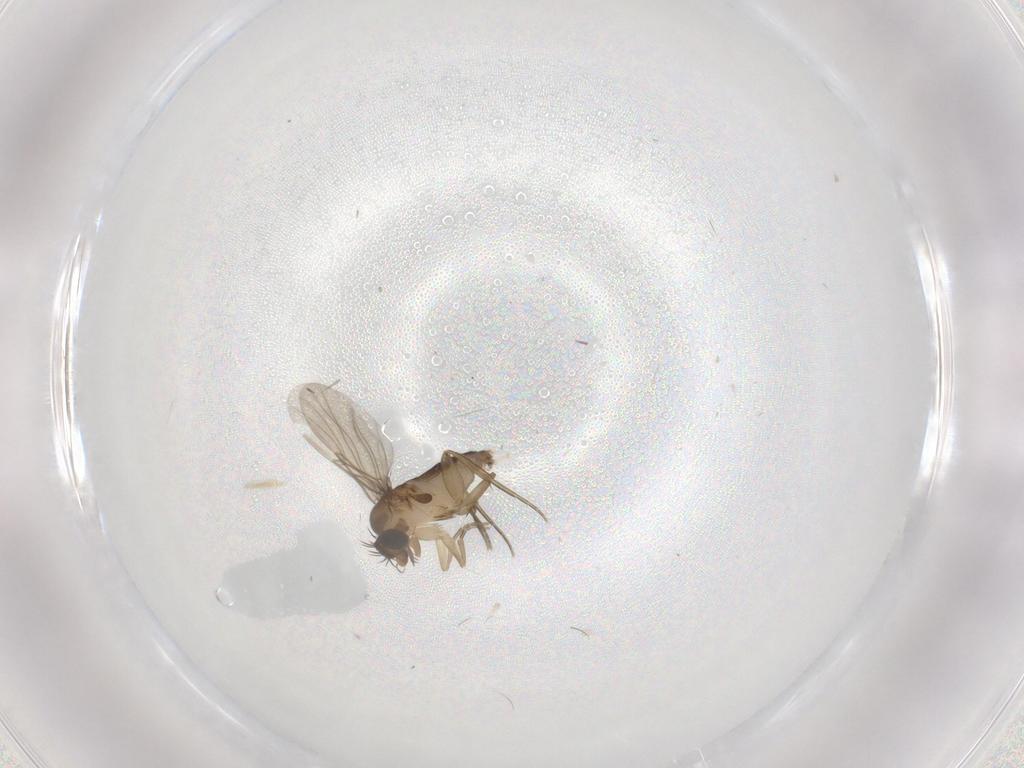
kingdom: Animalia
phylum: Arthropoda
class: Insecta
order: Diptera
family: Phoridae
